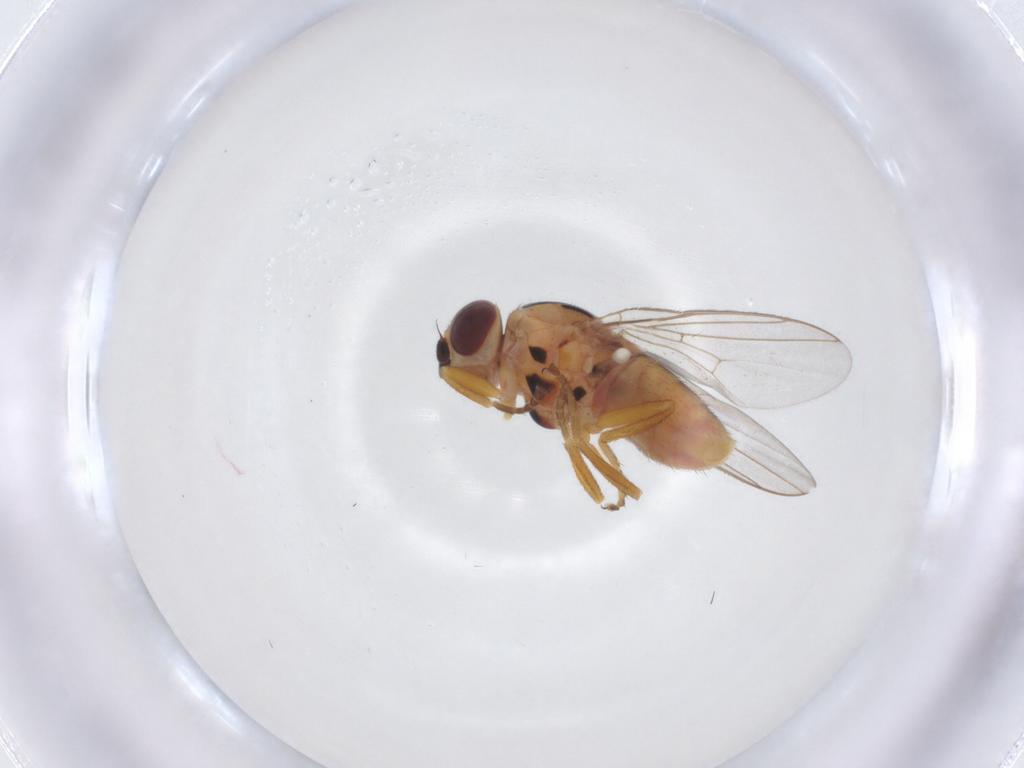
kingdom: Animalia
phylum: Arthropoda
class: Insecta
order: Diptera
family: Chloropidae
